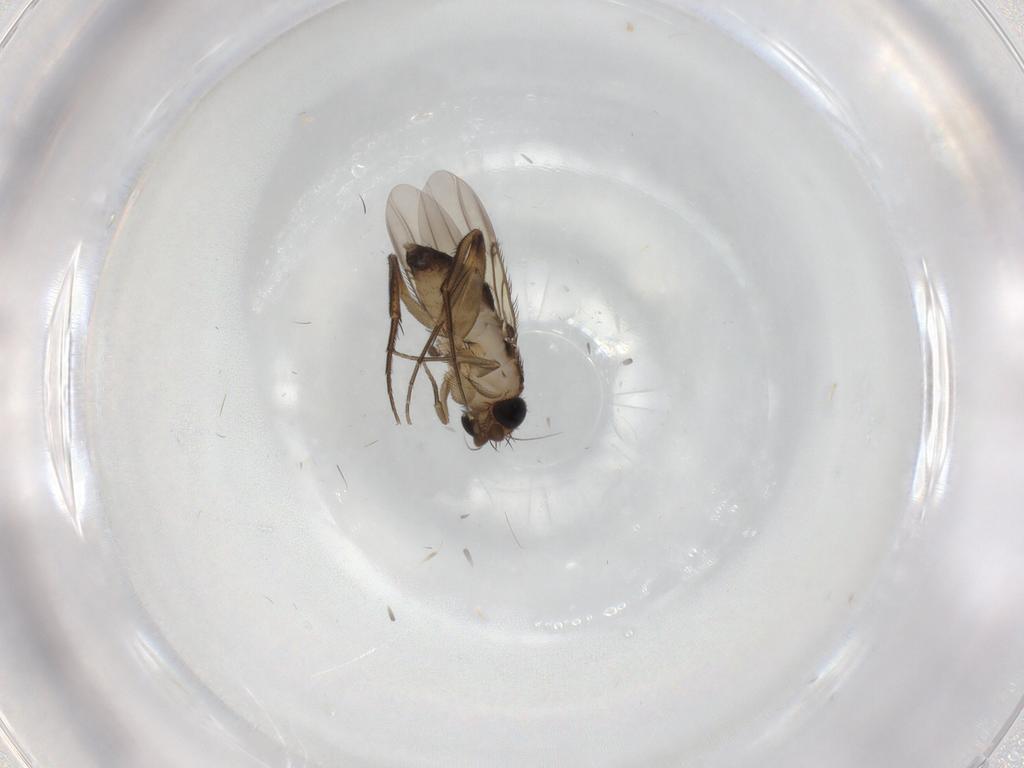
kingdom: Animalia
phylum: Arthropoda
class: Insecta
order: Diptera
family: Phoridae
